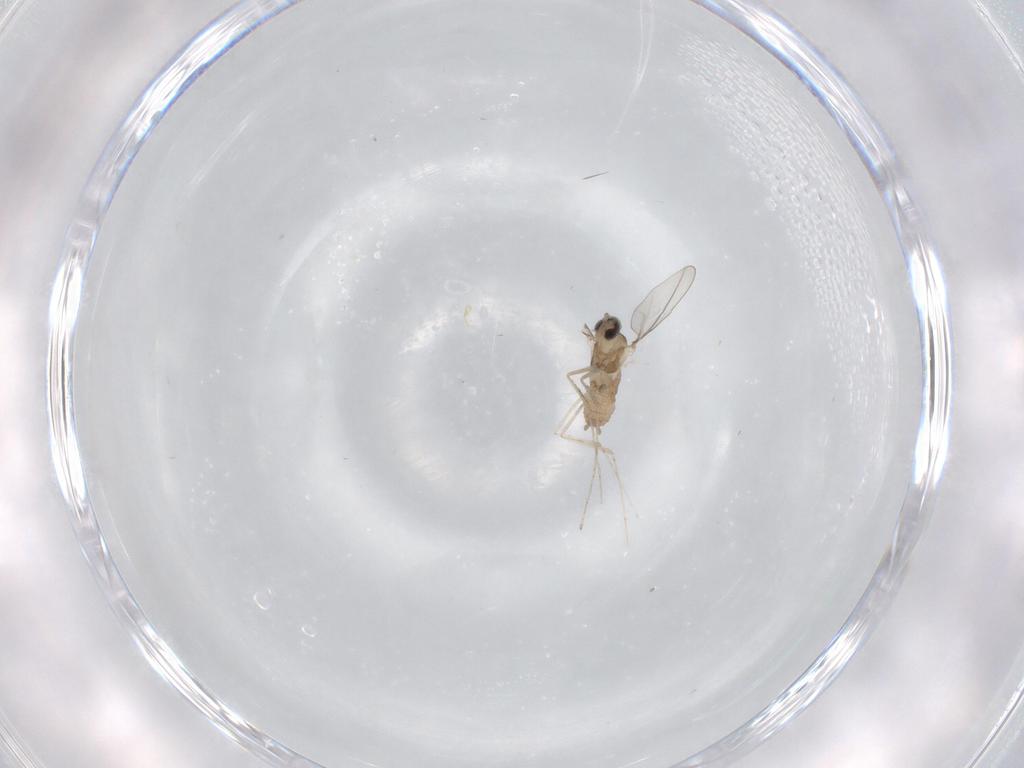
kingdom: Animalia
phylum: Arthropoda
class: Insecta
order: Diptera
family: Cecidomyiidae
